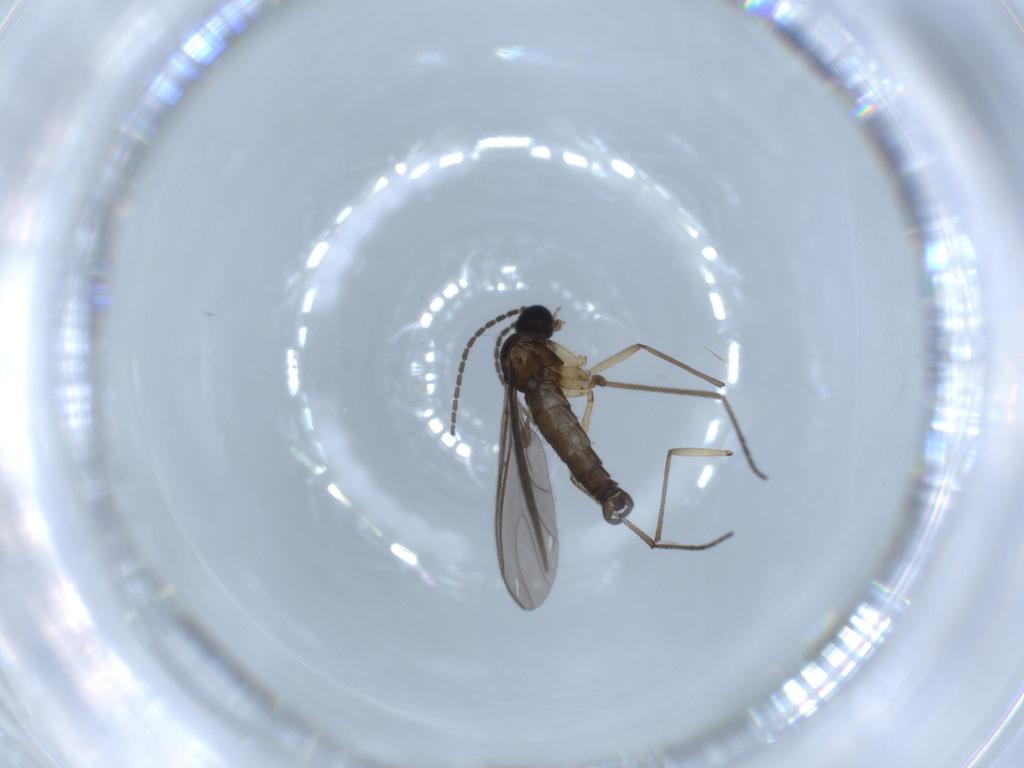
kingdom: Animalia
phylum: Arthropoda
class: Insecta
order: Diptera
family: Sciaridae
